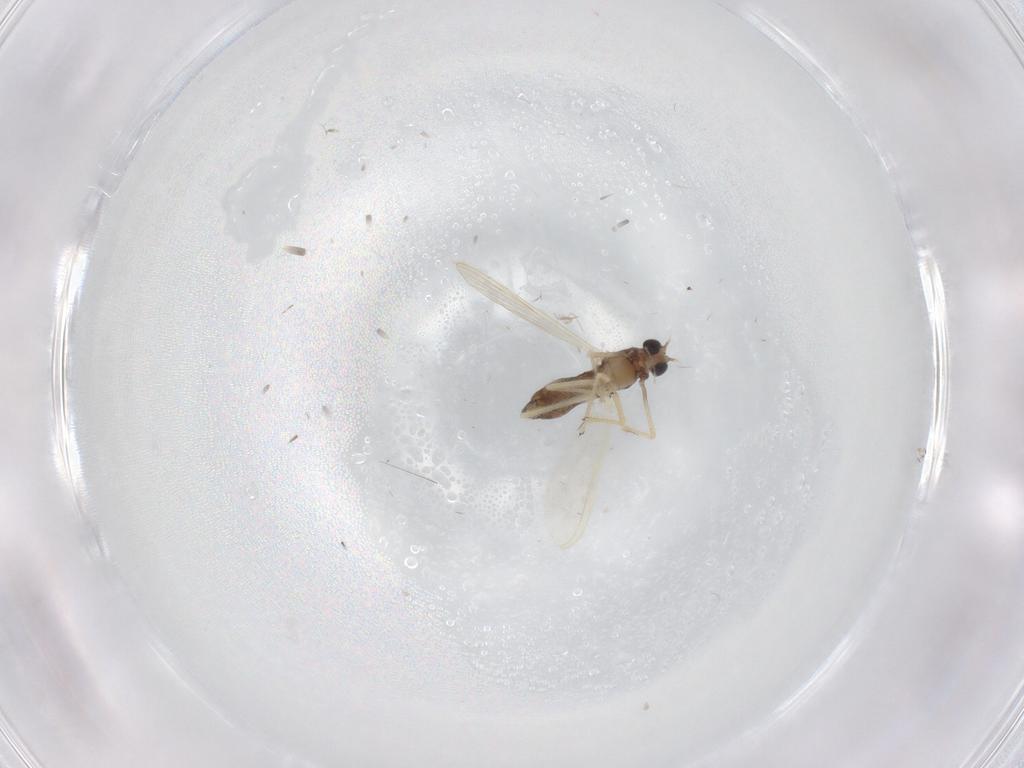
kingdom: Animalia
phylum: Arthropoda
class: Insecta
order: Diptera
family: Chironomidae
